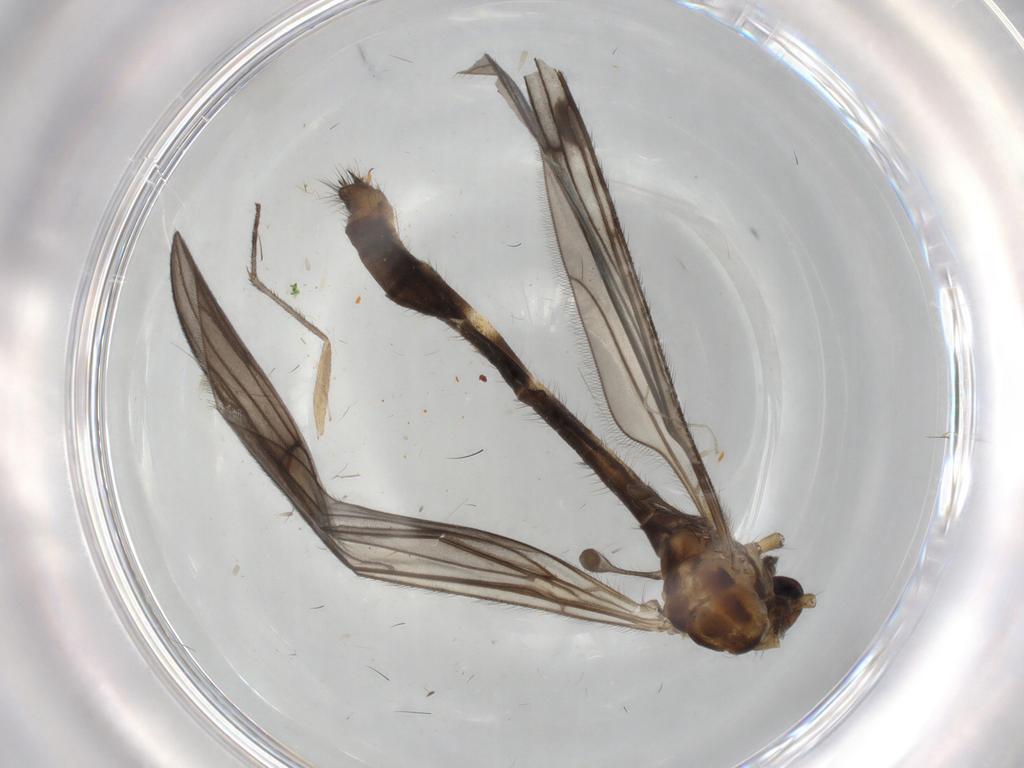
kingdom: Animalia
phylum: Arthropoda
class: Insecta
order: Diptera
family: Limoniidae
